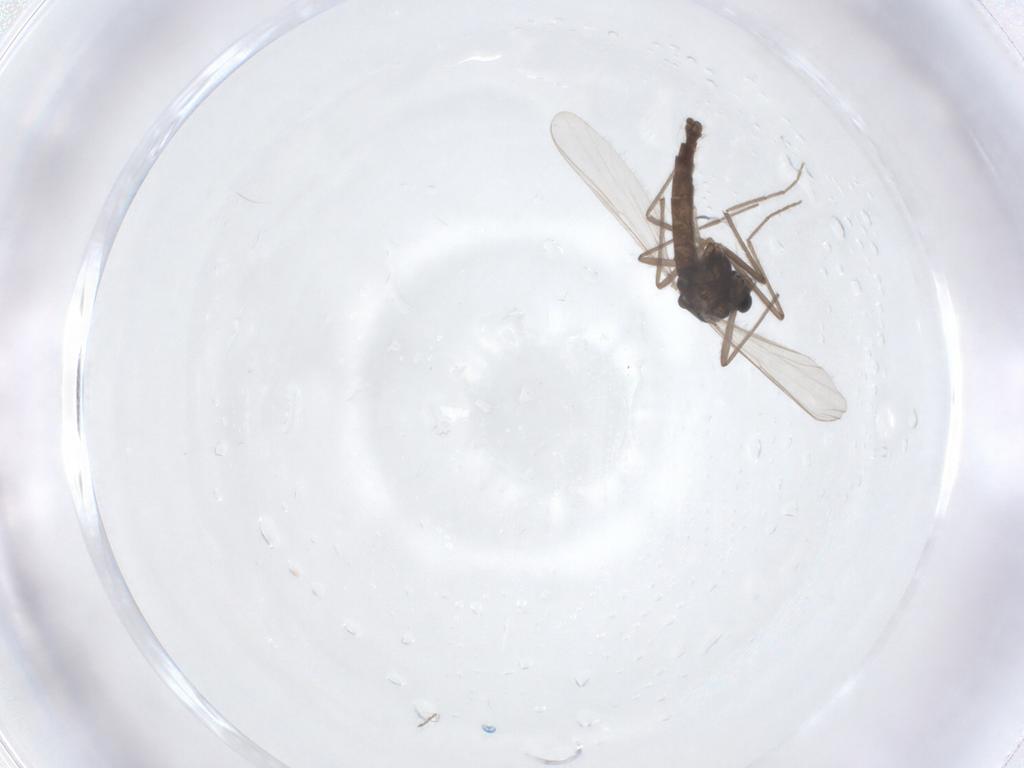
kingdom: Animalia
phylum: Arthropoda
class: Insecta
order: Diptera
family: Chironomidae
